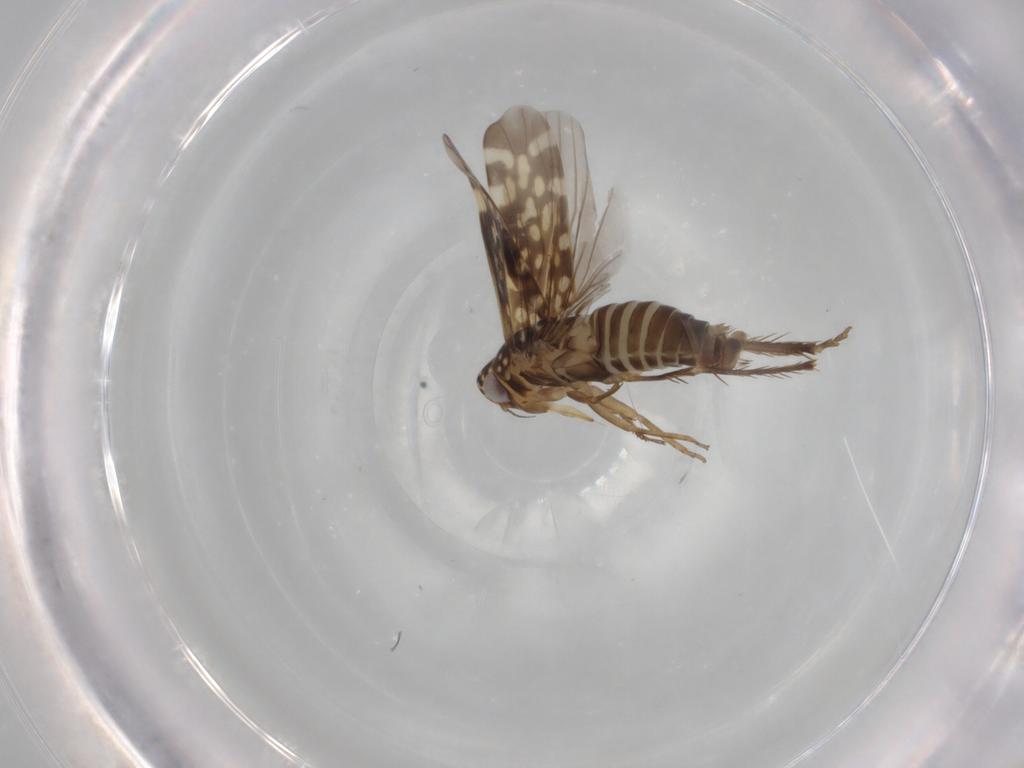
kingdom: Animalia
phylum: Arthropoda
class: Insecta
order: Hemiptera
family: Cicadellidae
